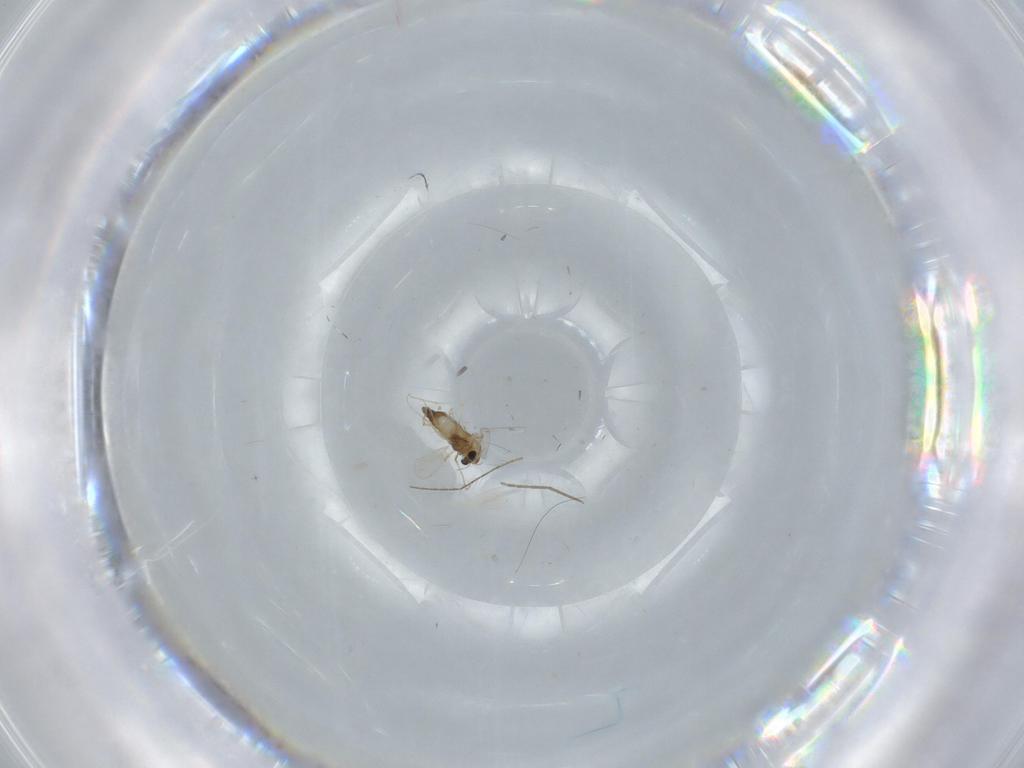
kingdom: Animalia
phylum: Arthropoda
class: Insecta
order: Diptera
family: Chironomidae
